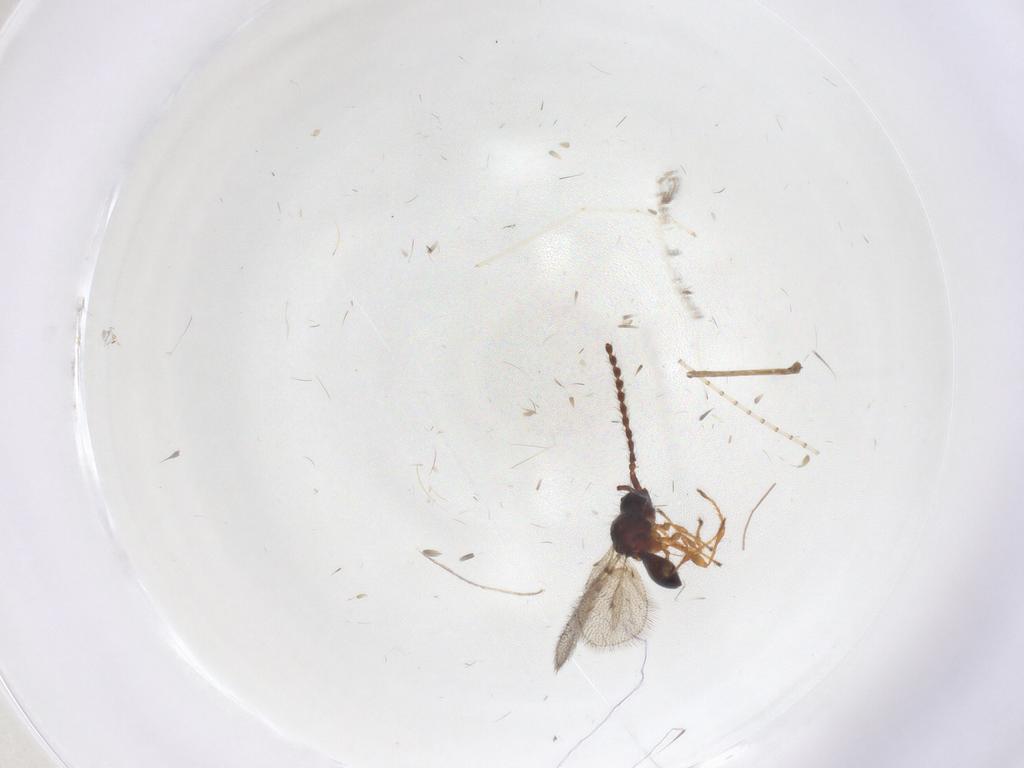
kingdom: Animalia
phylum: Arthropoda
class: Insecta
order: Hymenoptera
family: Diapriidae
